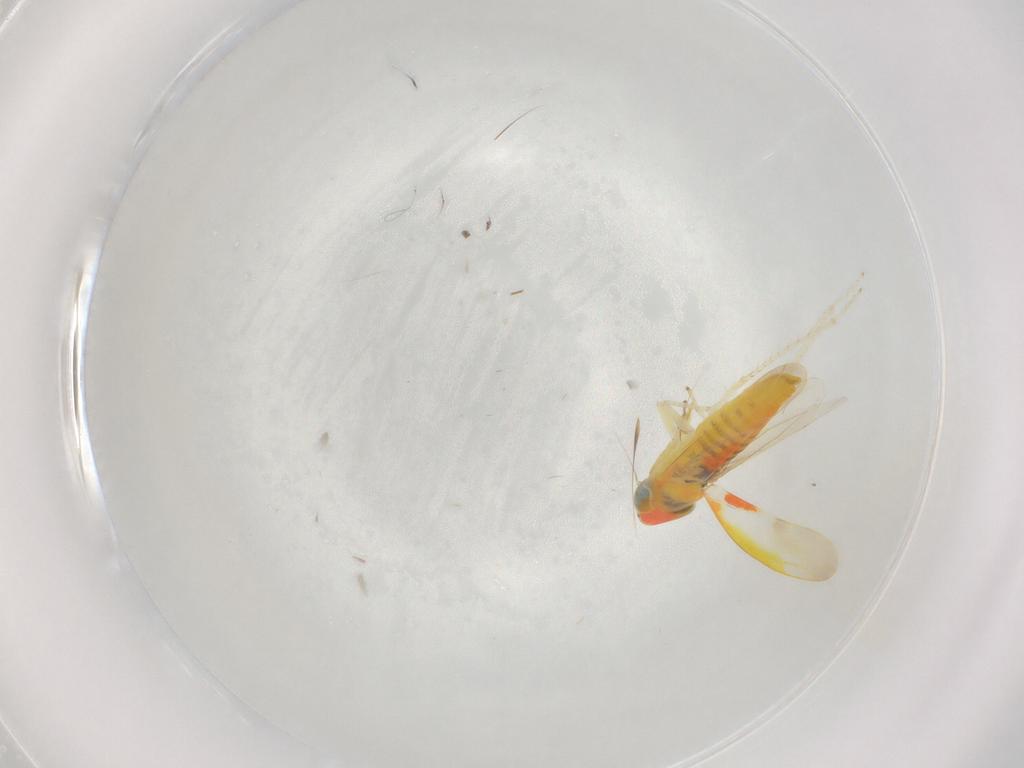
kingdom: Animalia
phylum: Arthropoda
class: Insecta
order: Hemiptera
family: Cicadellidae
